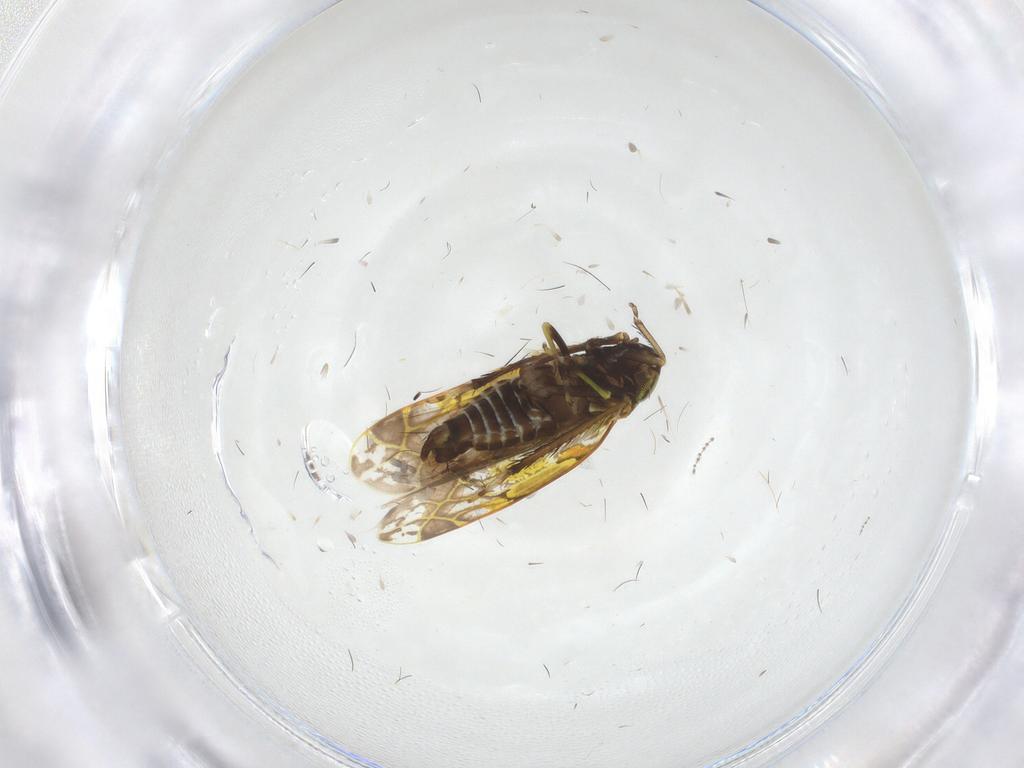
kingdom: Animalia
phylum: Arthropoda
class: Insecta
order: Hemiptera
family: Cicadellidae
